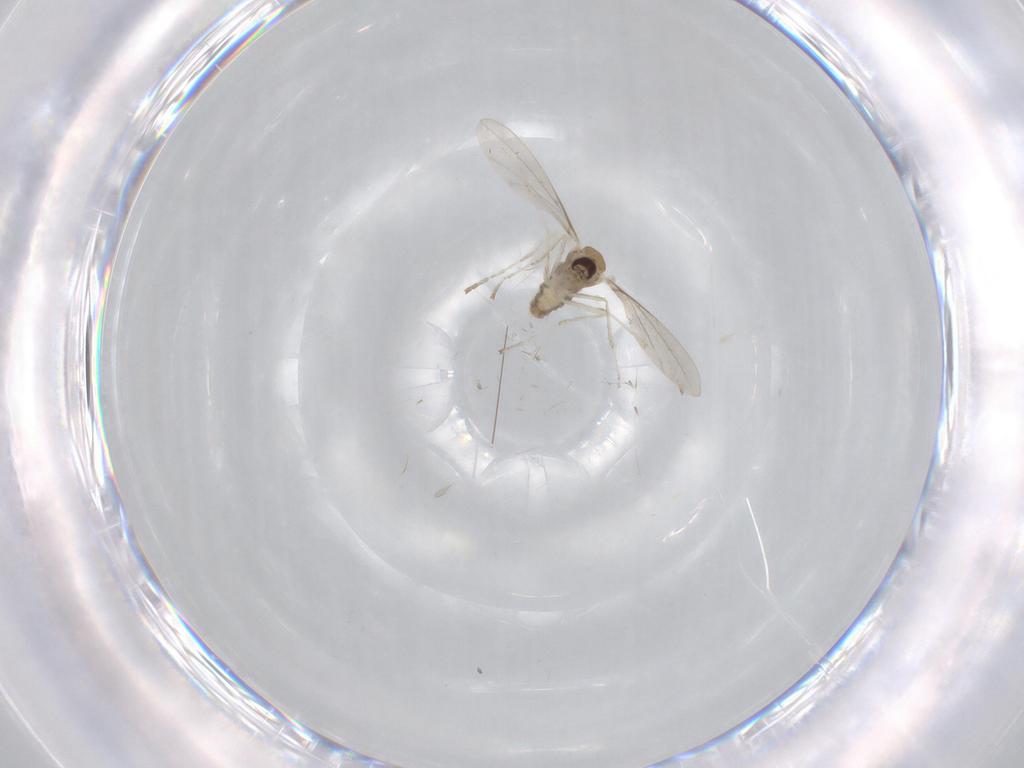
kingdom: Animalia
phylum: Arthropoda
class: Insecta
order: Diptera
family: Cecidomyiidae
